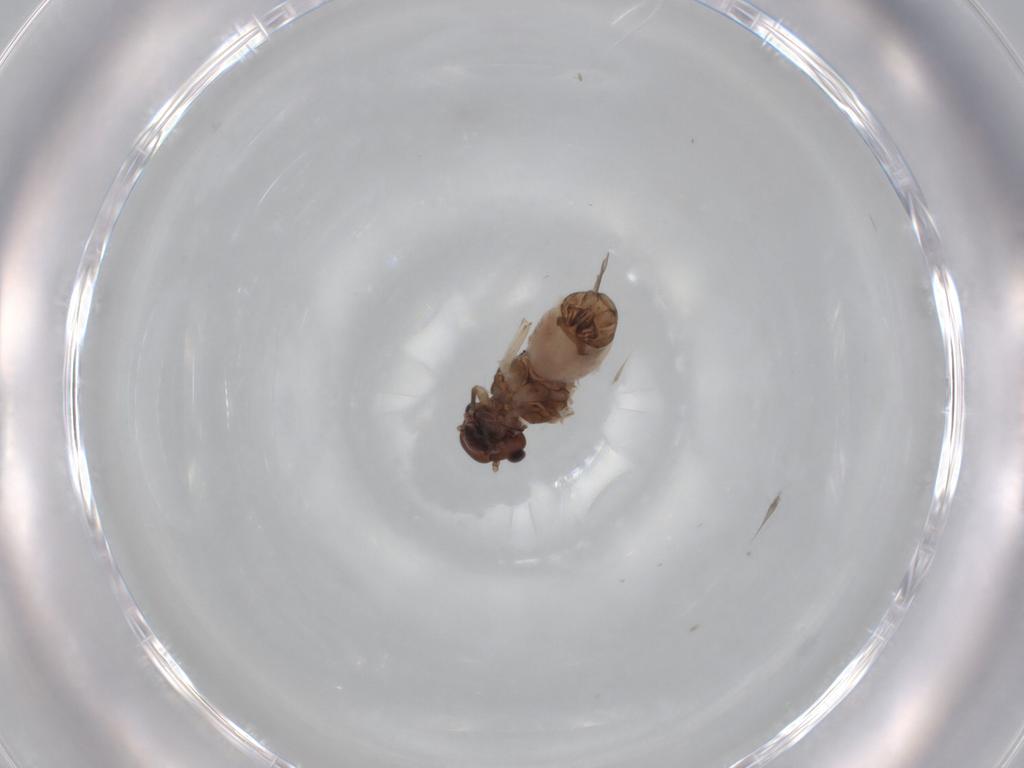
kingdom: Animalia
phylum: Arthropoda
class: Insecta
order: Psocodea
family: Peripsocidae
